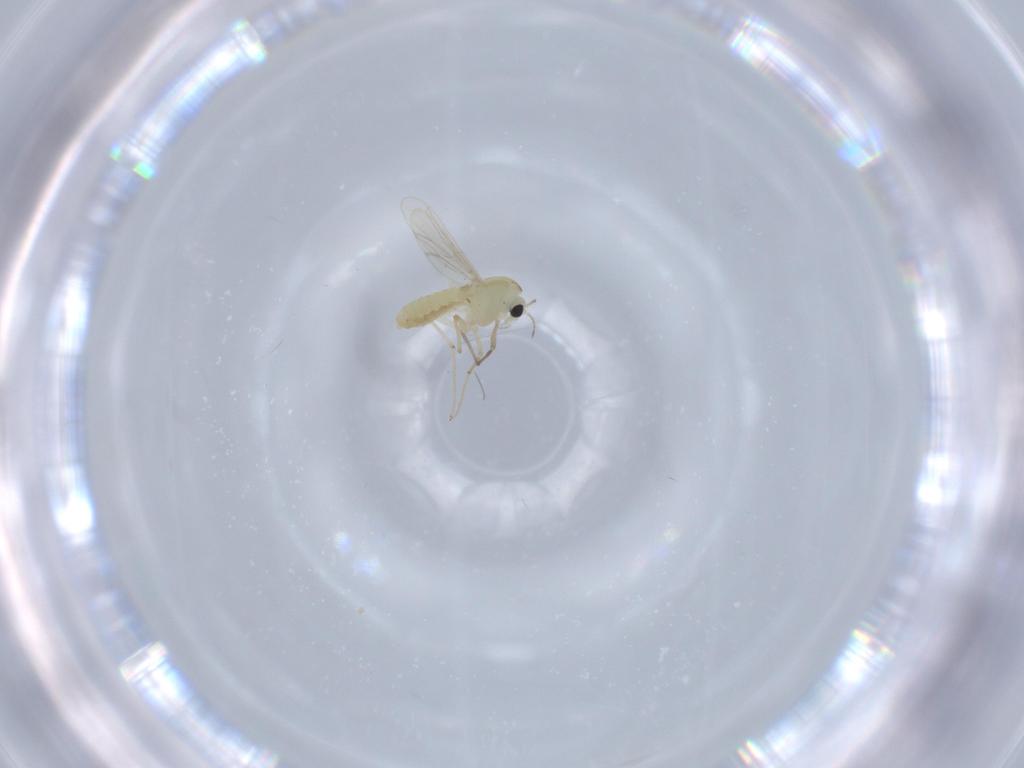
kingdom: Animalia
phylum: Arthropoda
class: Insecta
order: Diptera
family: Chironomidae
